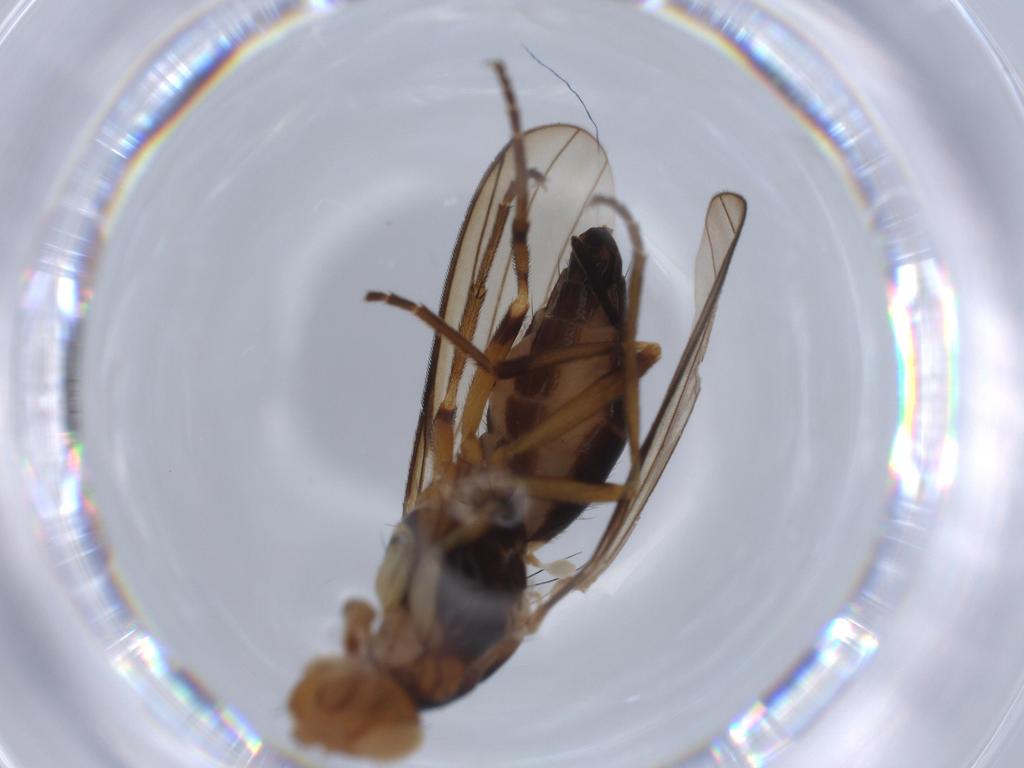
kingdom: Animalia
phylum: Arthropoda
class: Insecta
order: Diptera
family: Piophilidae
